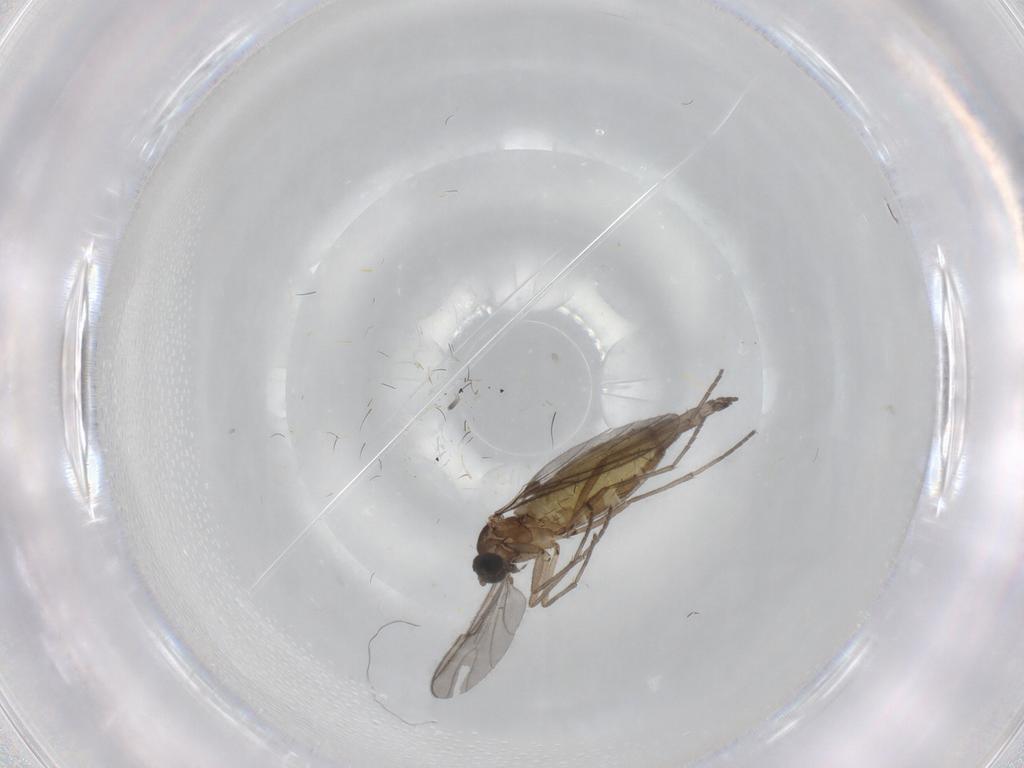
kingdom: Animalia
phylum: Arthropoda
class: Insecta
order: Diptera
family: Sciaridae
